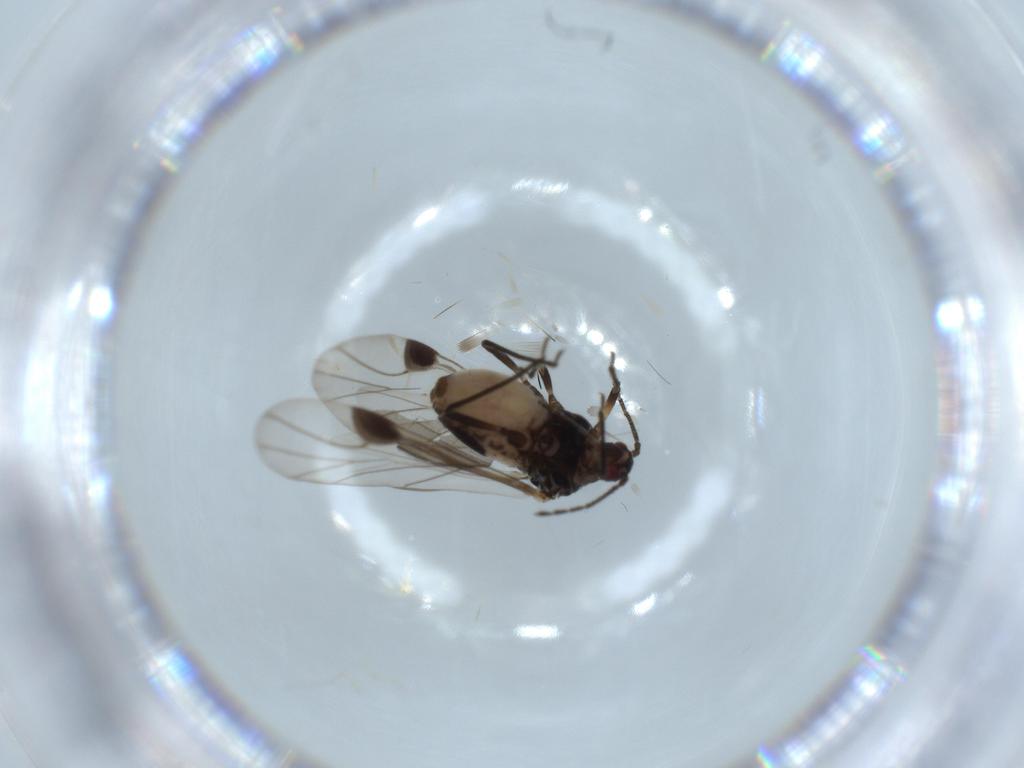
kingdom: Animalia
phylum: Arthropoda
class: Insecta
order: Hemiptera
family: Aphididae
